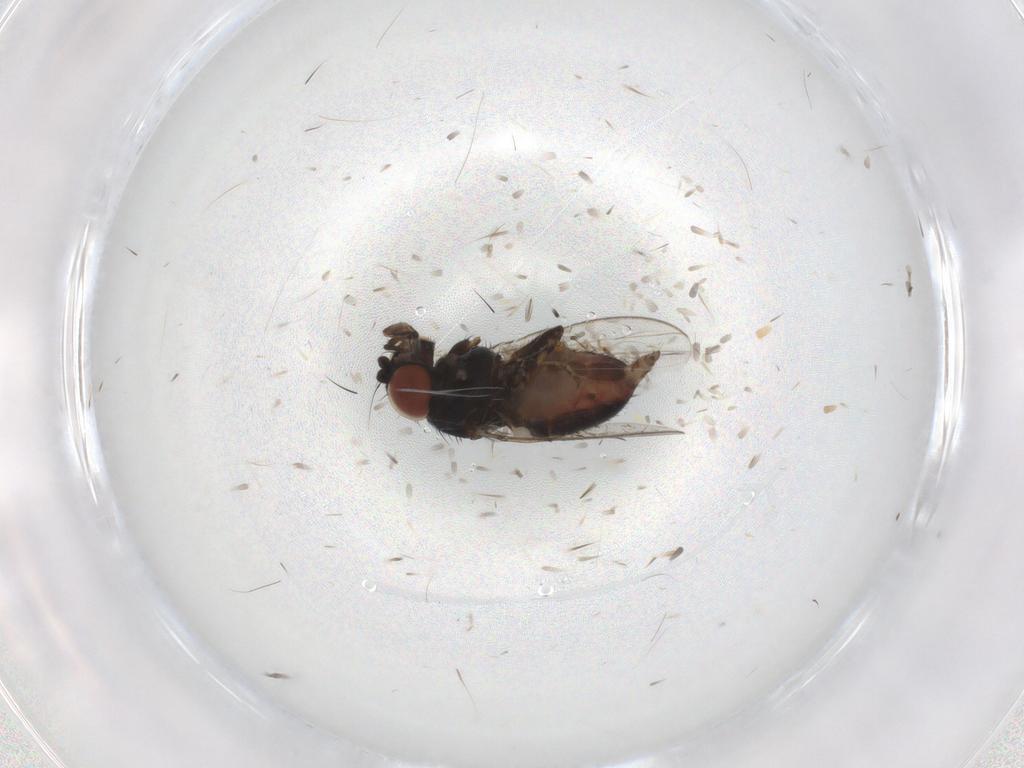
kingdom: Animalia
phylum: Arthropoda
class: Insecta
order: Diptera
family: Milichiidae
